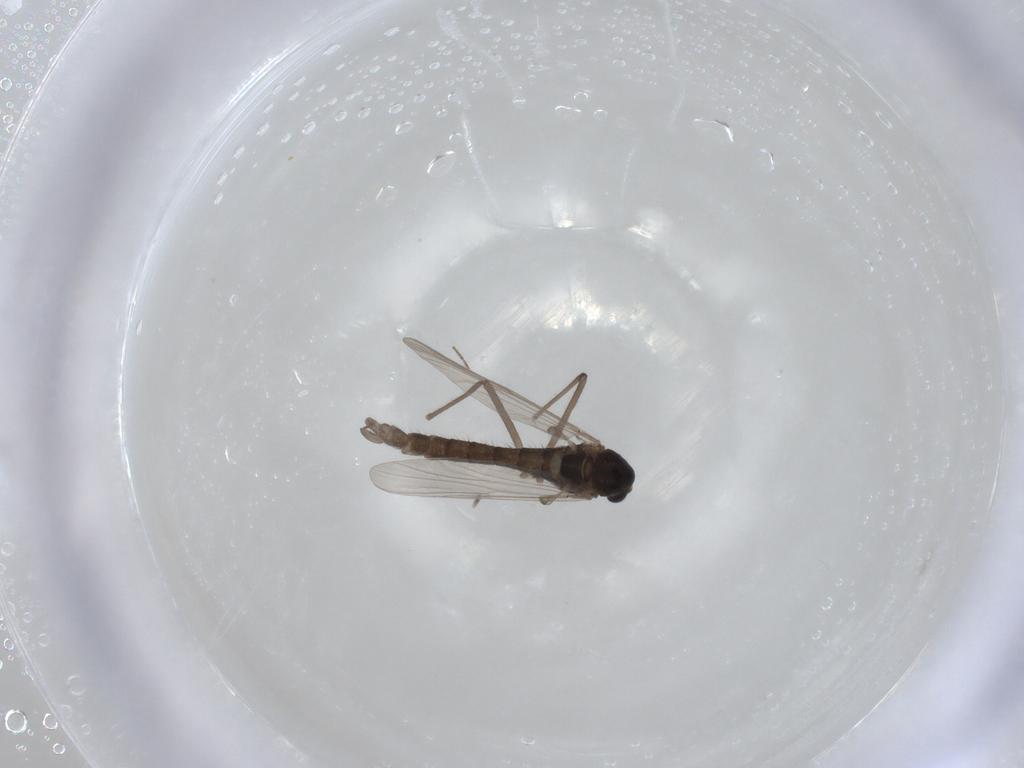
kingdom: Animalia
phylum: Arthropoda
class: Insecta
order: Diptera
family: Chironomidae
